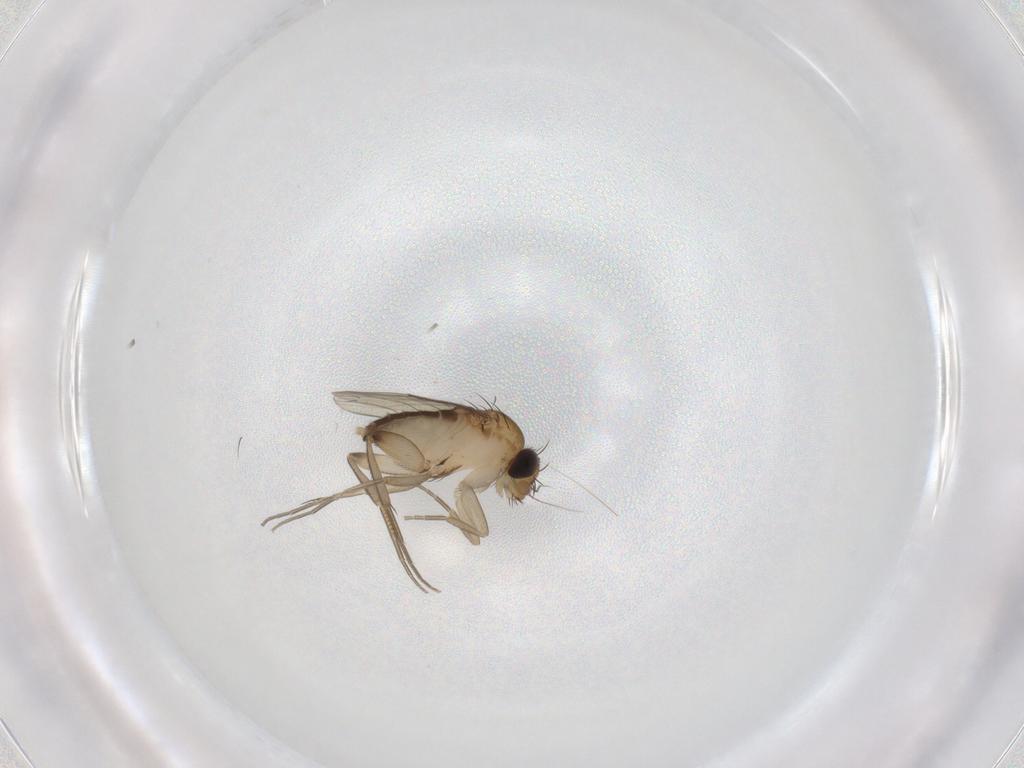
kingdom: Animalia
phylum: Arthropoda
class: Insecta
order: Diptera
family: Phoridae
